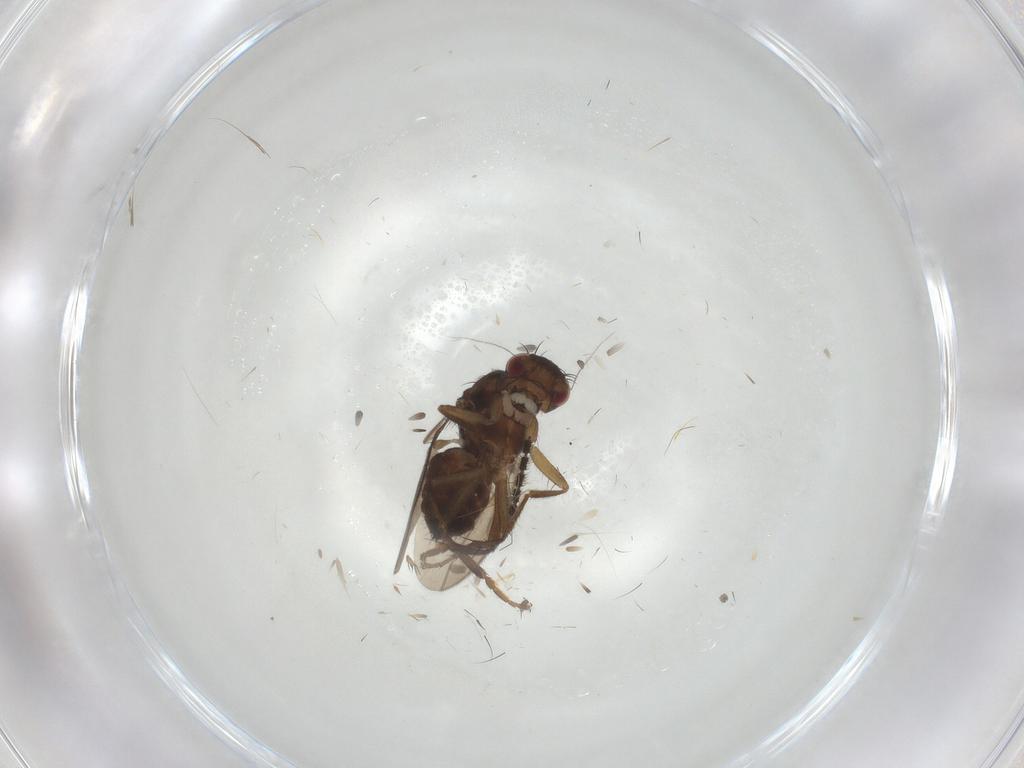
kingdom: Animalia
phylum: Arthropoda
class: Insecta
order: Diptera
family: Sphaeroceridae
